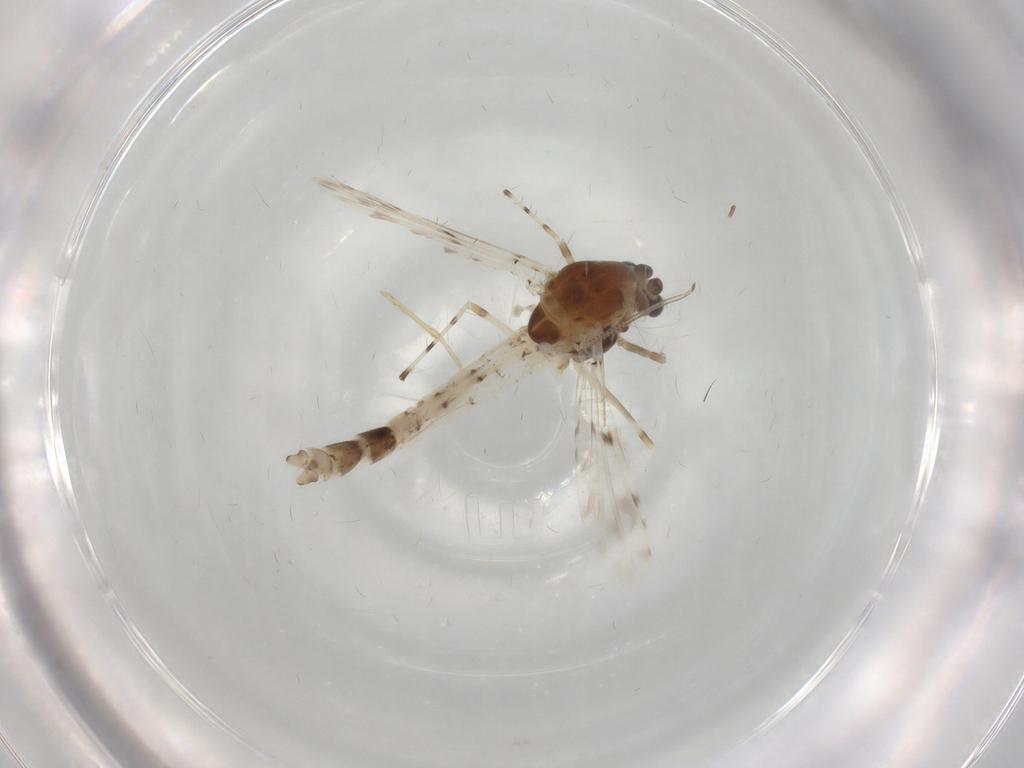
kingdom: Animalia
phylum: Arthropoda
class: Insecta
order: Diptera
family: Chironomidae
